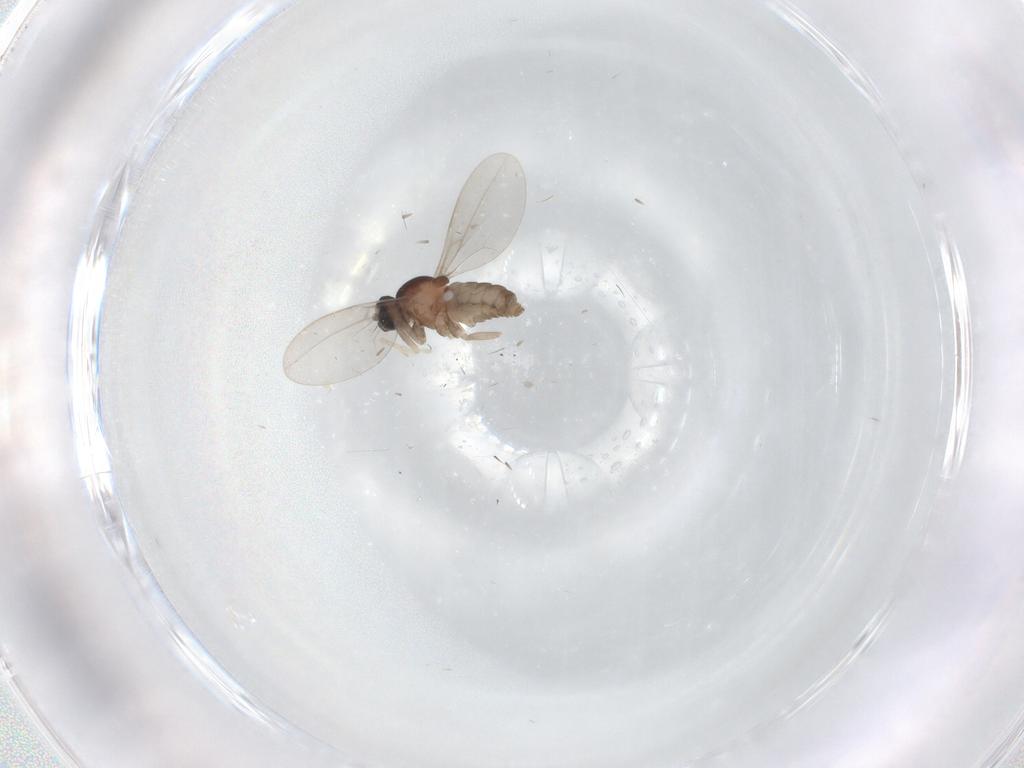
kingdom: Animalia
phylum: Arthropoda
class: Insecta
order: Diptera
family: Cecidomyiidae
